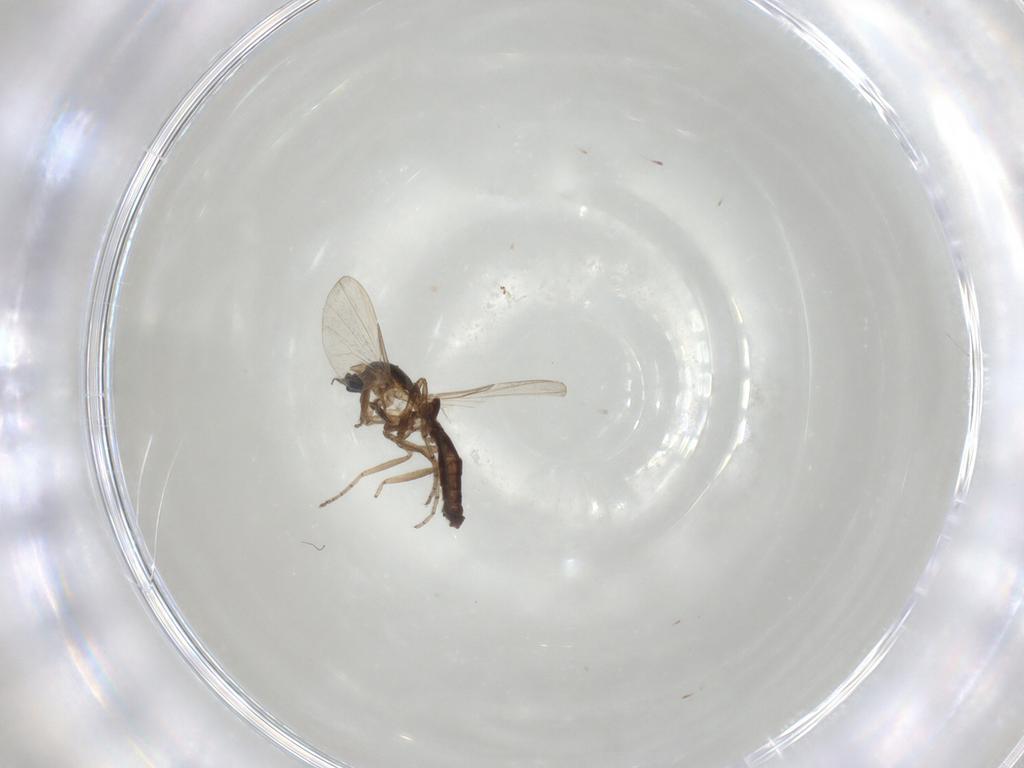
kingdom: Animalia
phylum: Arthropoda
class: Insecta
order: Diptera
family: Ceratopogonidae
